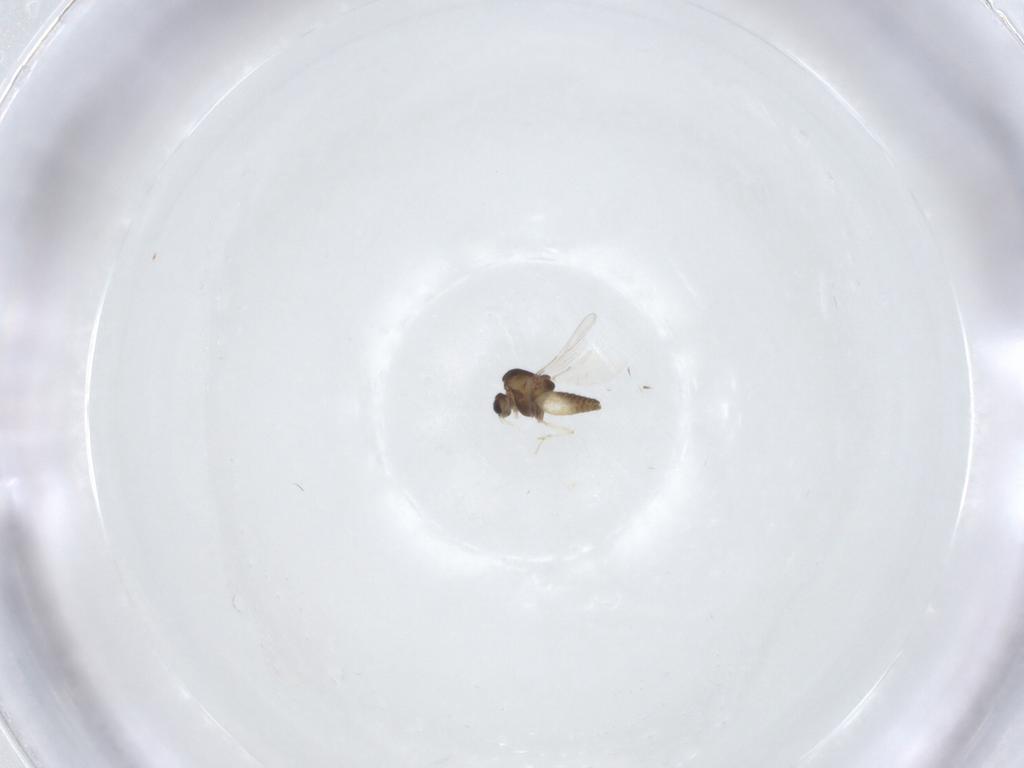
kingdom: Animalia
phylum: Arthropoda
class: Insecta
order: Diptera
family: Chironomidae
